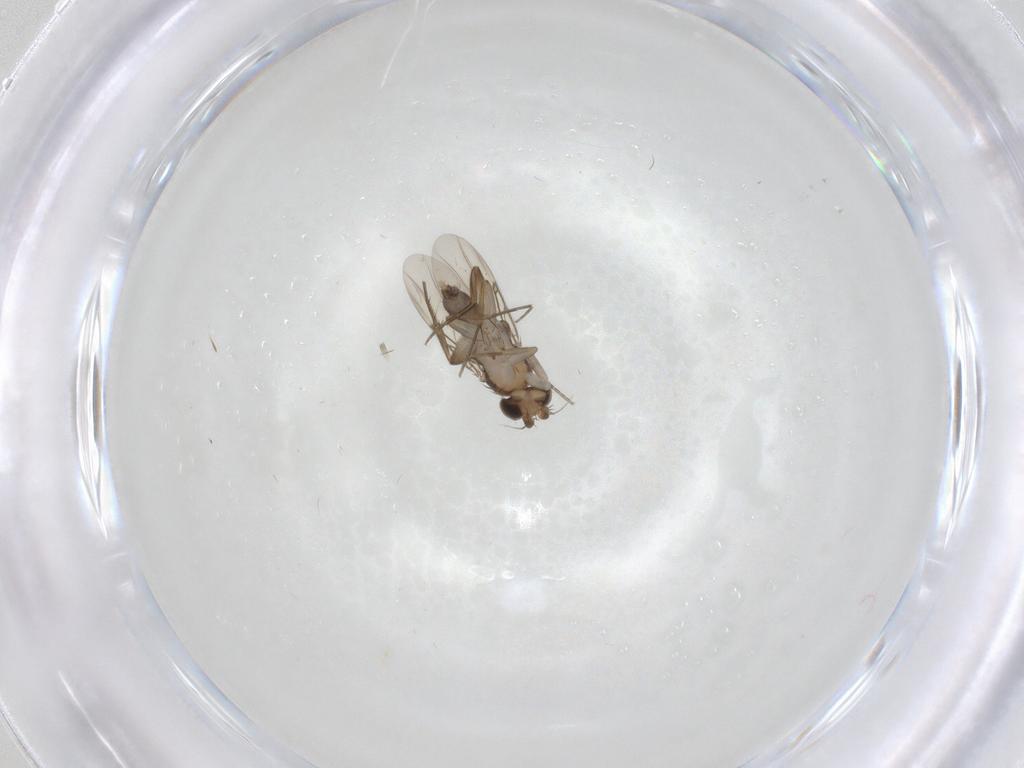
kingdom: Animalia
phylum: Arthropoda
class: Insecta
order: Diptera
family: Phoridae
